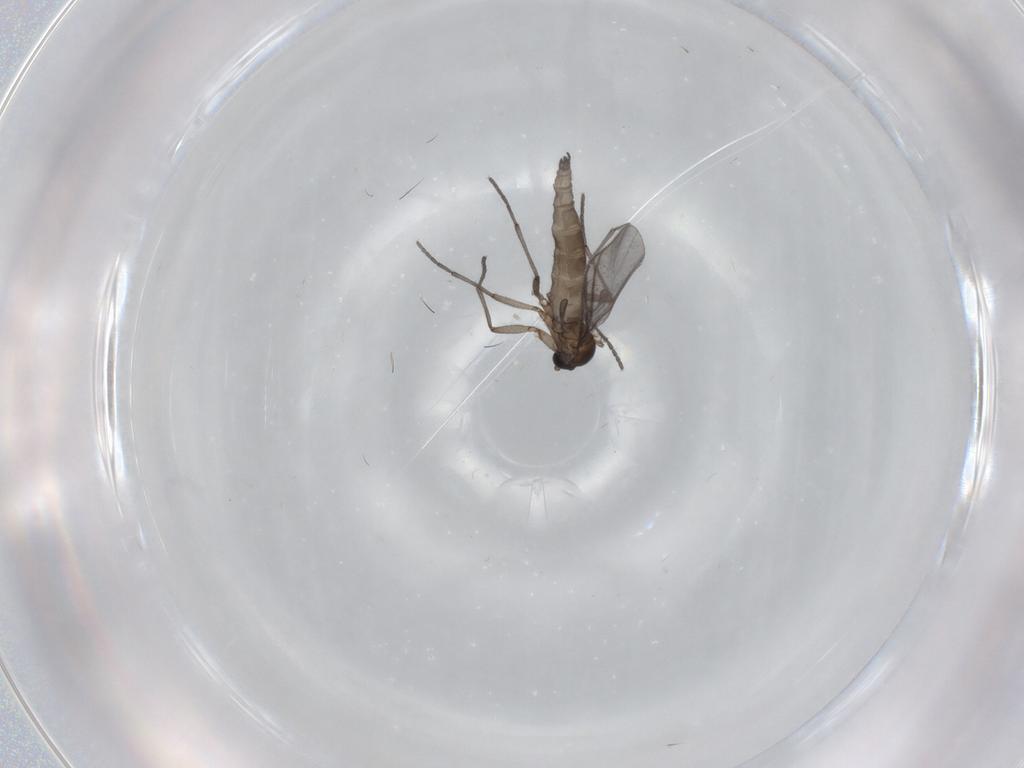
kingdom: Animalia
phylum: Arthropoda
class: Insecta
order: Diptera
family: Sciaridae
